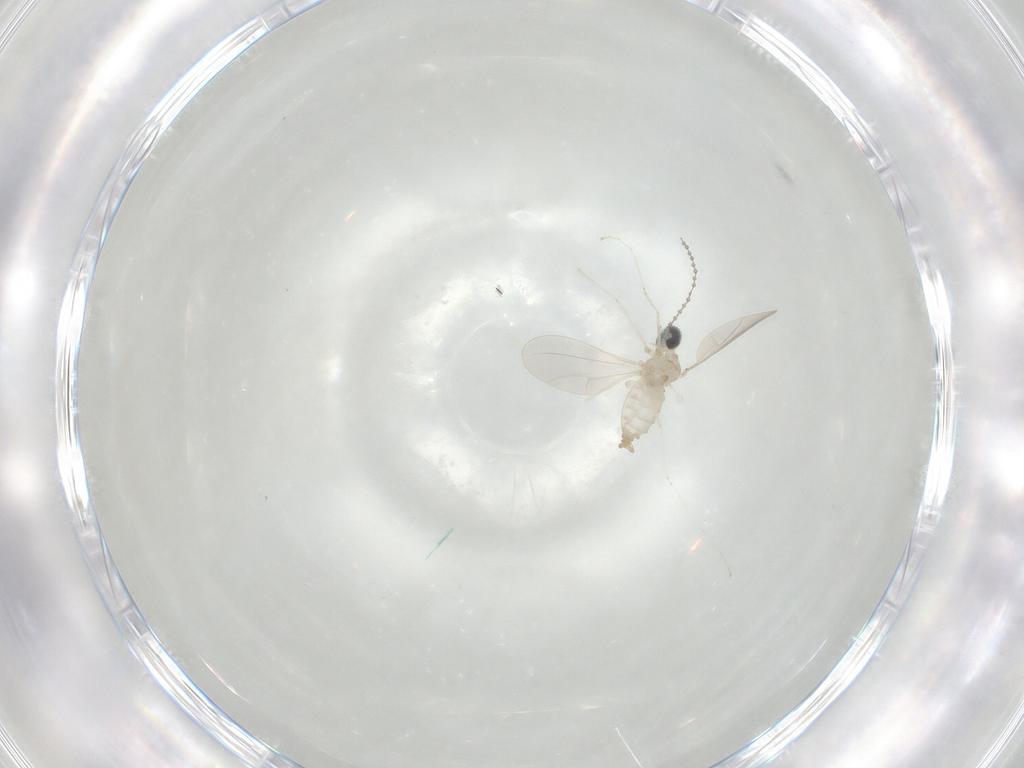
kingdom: Animalia
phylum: Arthropoda
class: Insecta
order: Diptera
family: Cecidomyiidae
